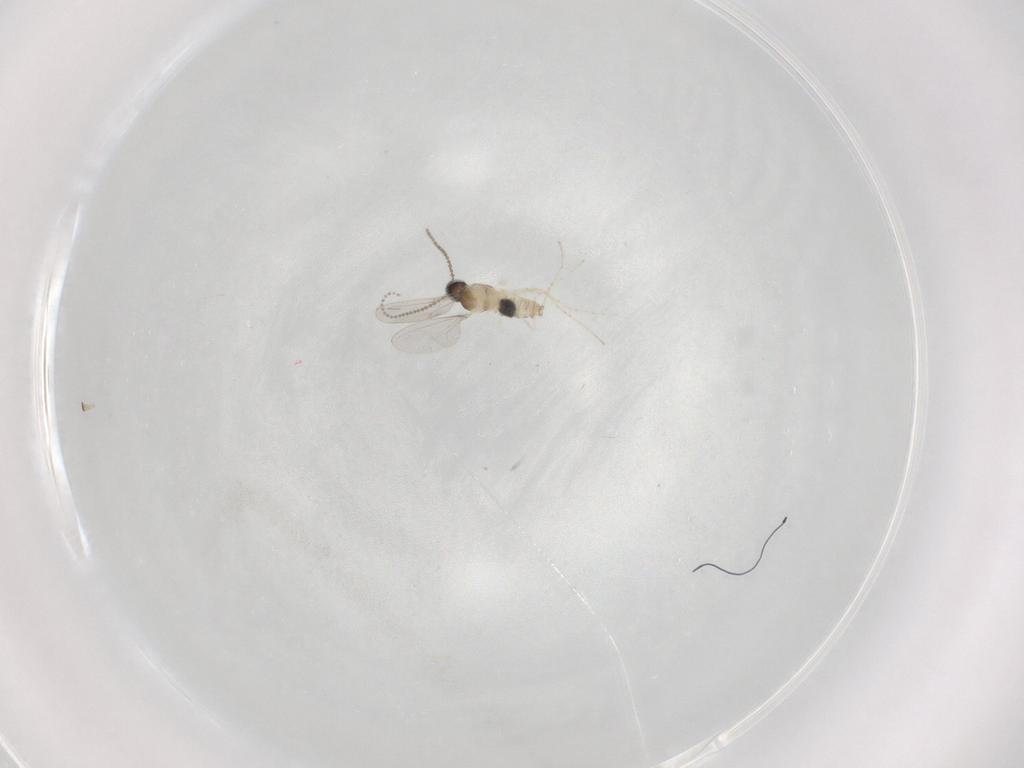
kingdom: Animalia
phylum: Arthropoda
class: Insecta
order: Diptera
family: Cecidomyiidae
